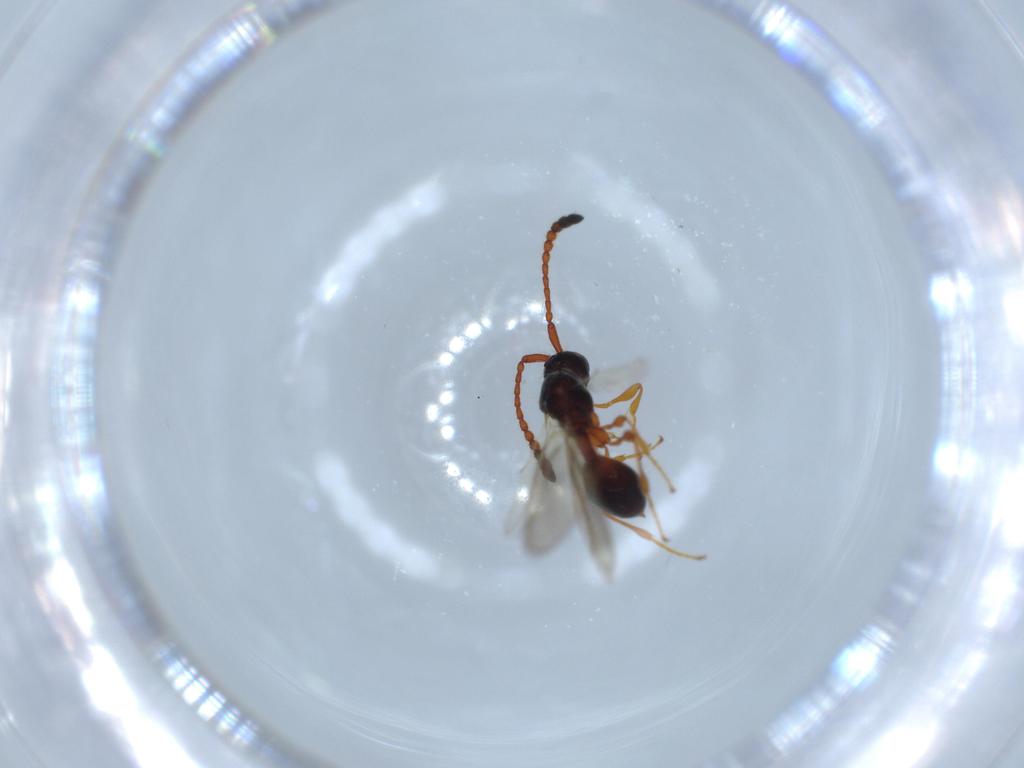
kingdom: Animalia
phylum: Arthropoda
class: Insecta
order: Hymenoptera
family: Diapriidae
